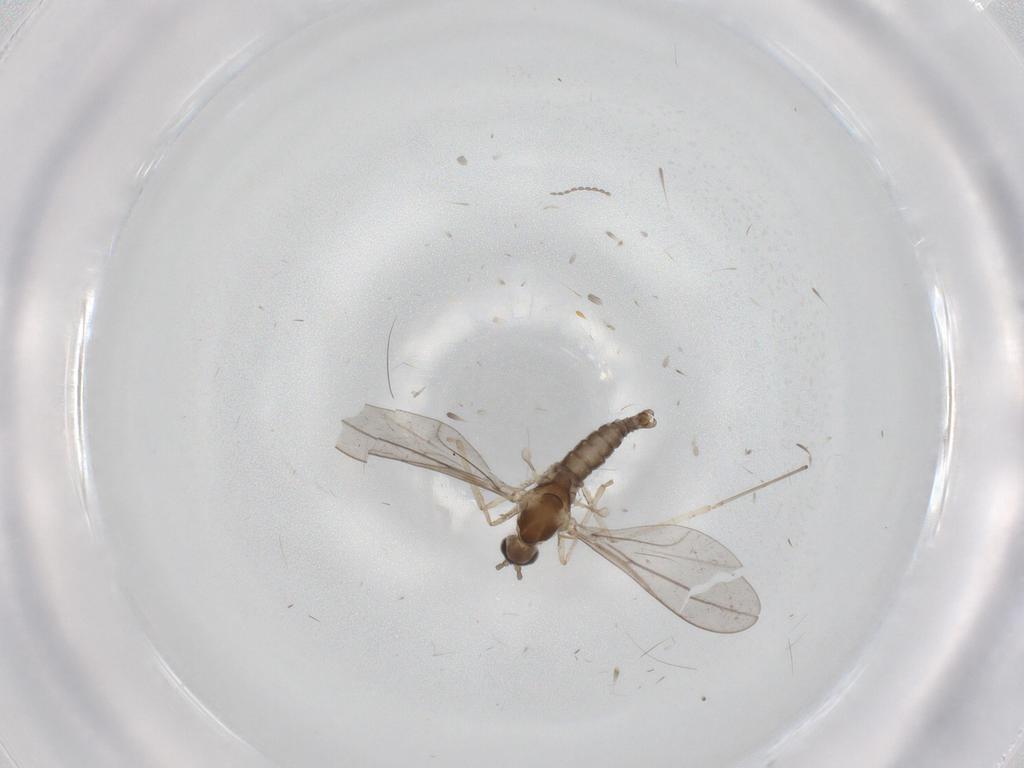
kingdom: Animalia
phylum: Arthropoda
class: Insecta
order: Diptera
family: Cecidomyiidae
